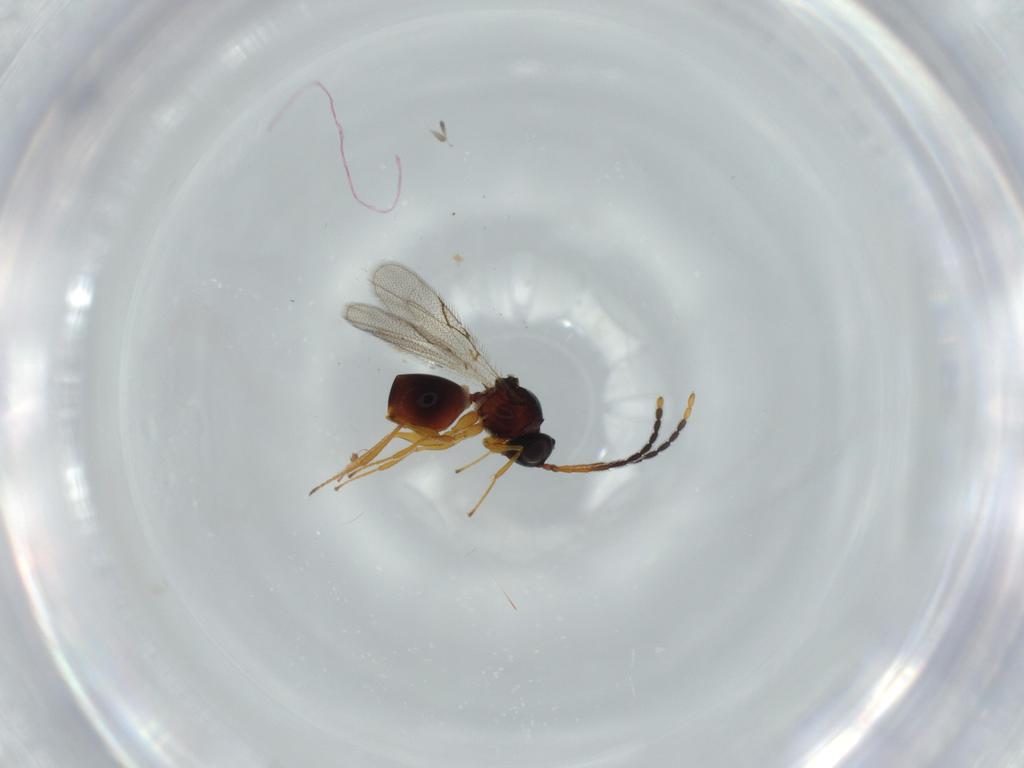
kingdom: Animalia
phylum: Arthropoda
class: Insecta
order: Hymenoptera
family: Figitidae
